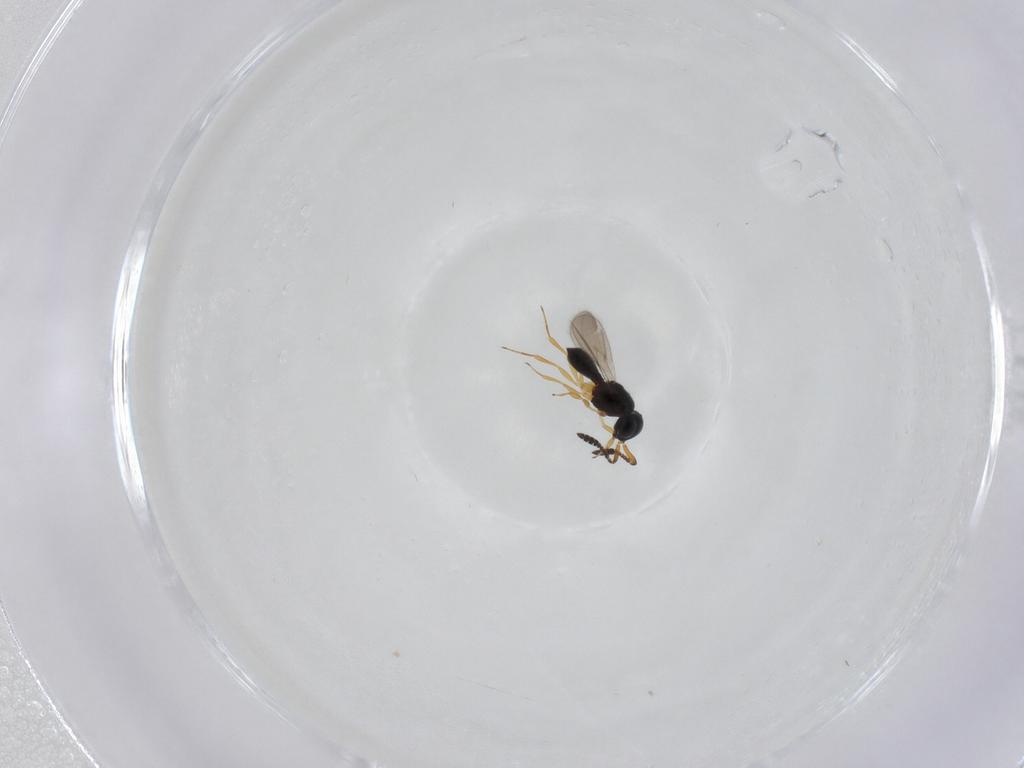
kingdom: Animalia
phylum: Arthropoda
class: Insecta
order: Hymenoptera
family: Scelionidae
